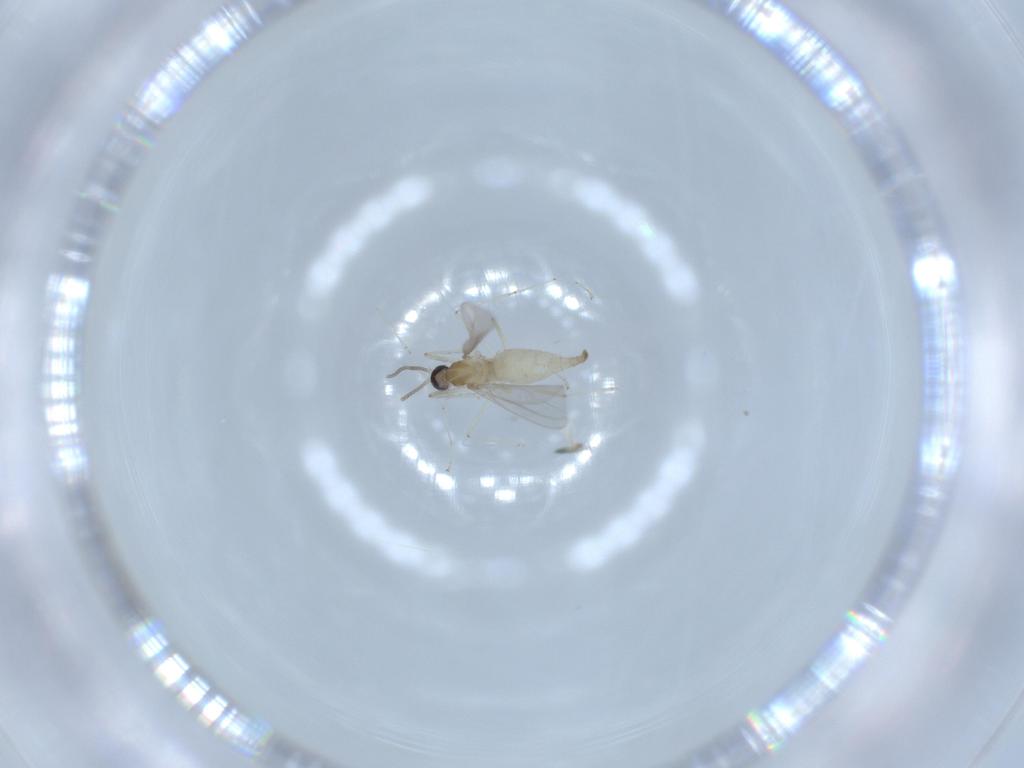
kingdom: Animalia
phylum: Arthropoda
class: Insecta
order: Diptera
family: Cecidomyiidae
